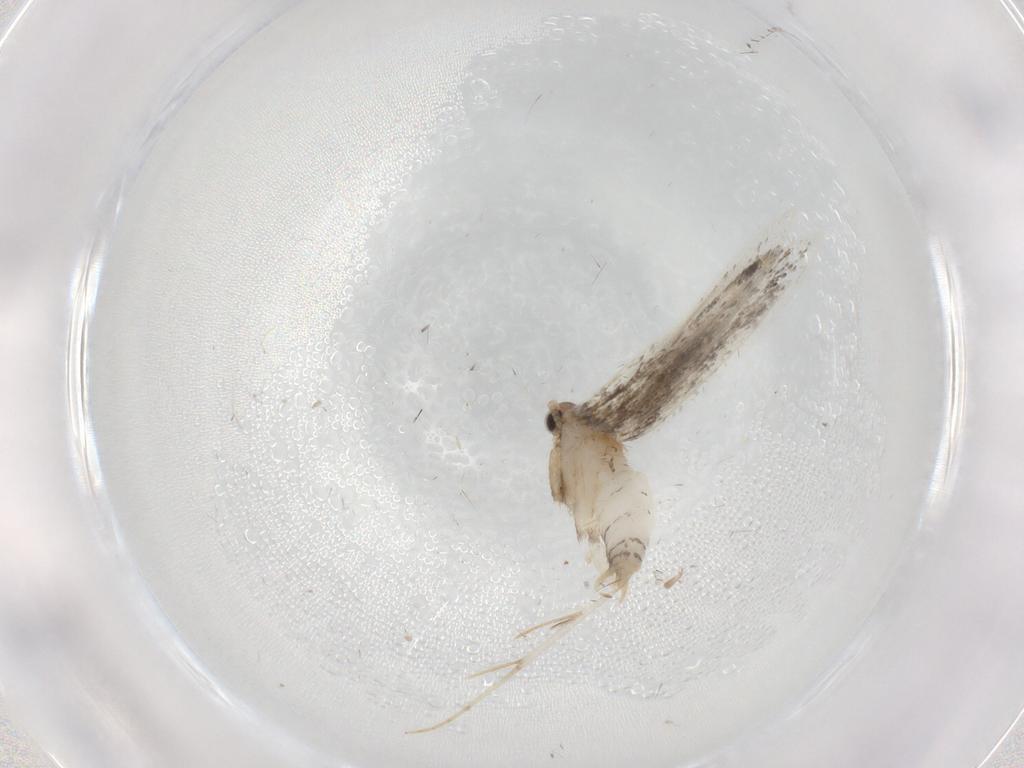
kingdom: Animalia
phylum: Arthropoda
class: Insecta
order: Lepidoptera
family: Tineidae
